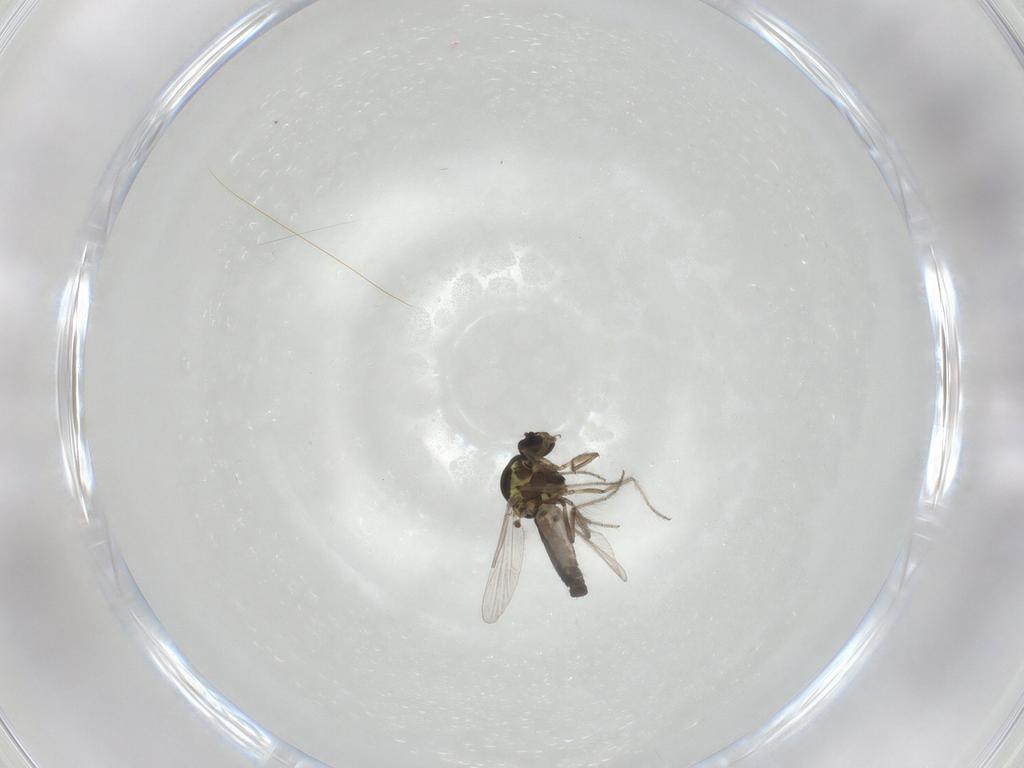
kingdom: Animalia
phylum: Arthropoda
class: Insecta
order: Diptera
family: Ceratopogonidae
